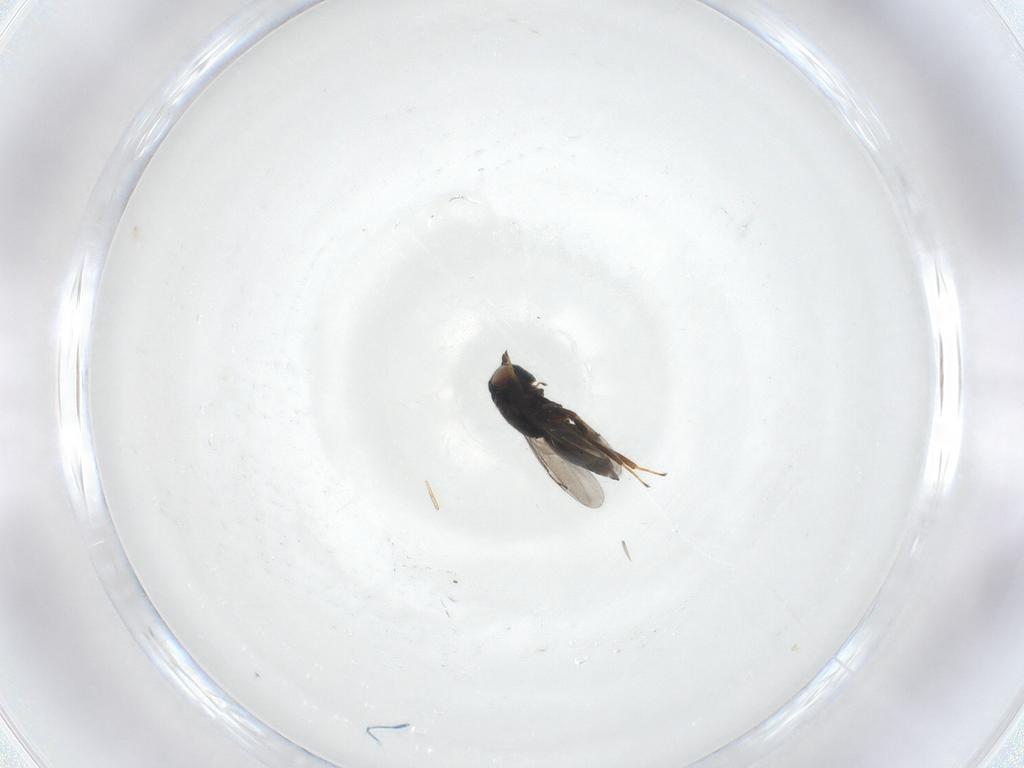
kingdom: Animalia
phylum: Arthropoda
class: Insecta
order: Hymenoptera
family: Eunotidae
